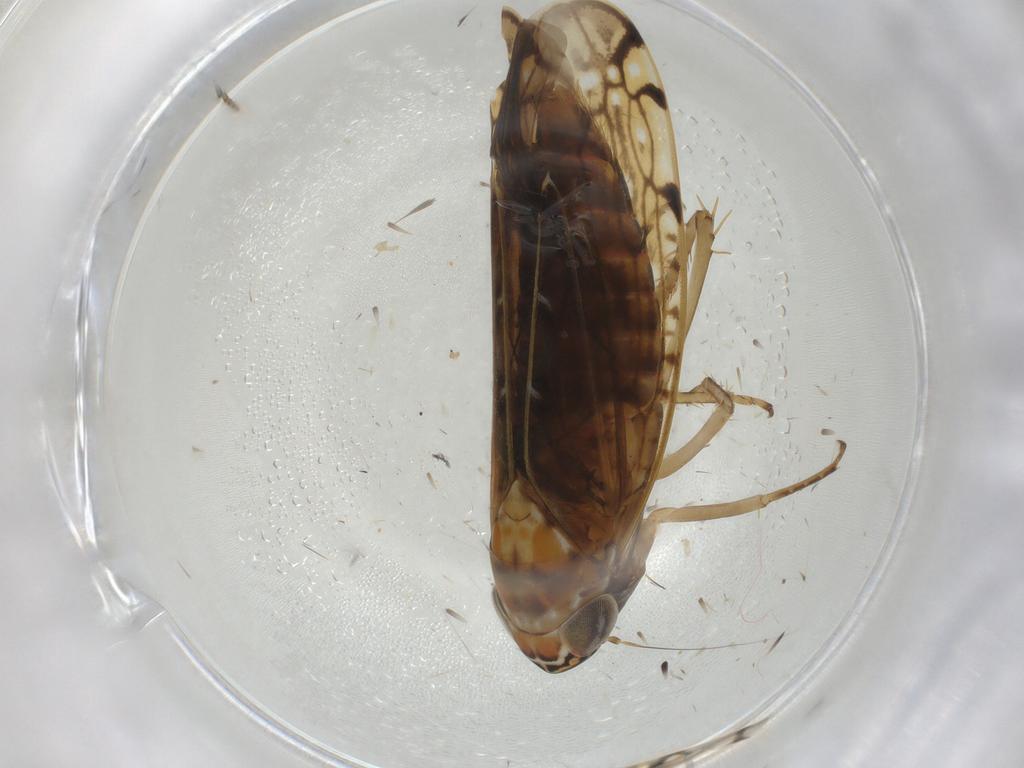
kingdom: Animalia
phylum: Arthropoda
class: Insecta
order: Hemiptera
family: Cicadellidae
